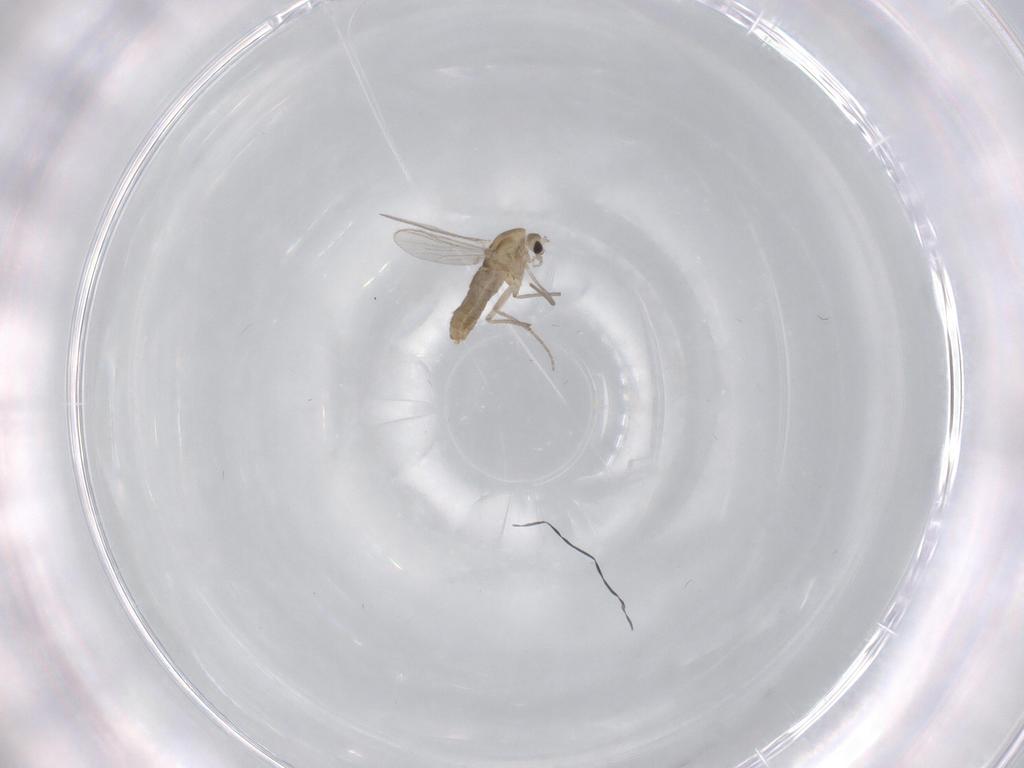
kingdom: Animalia
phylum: Arthropoda
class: Insecta
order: Diptera
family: Chironomidae
